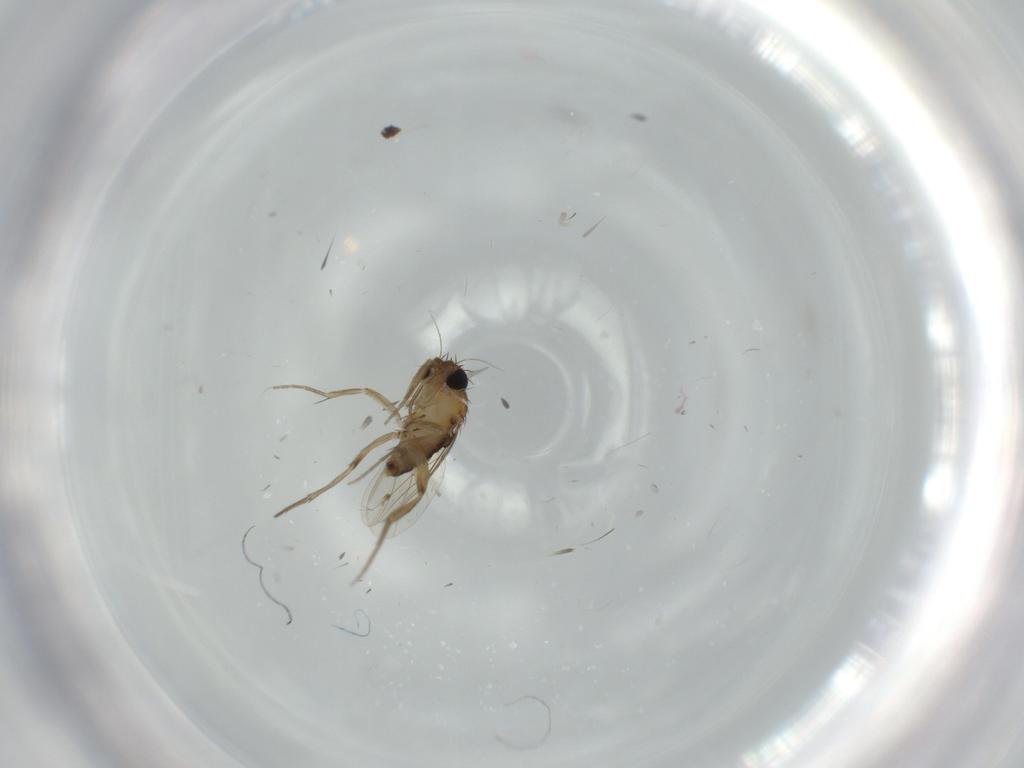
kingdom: Animalia
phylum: Arthropoda
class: Insecta
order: Diptera
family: Phoridae
